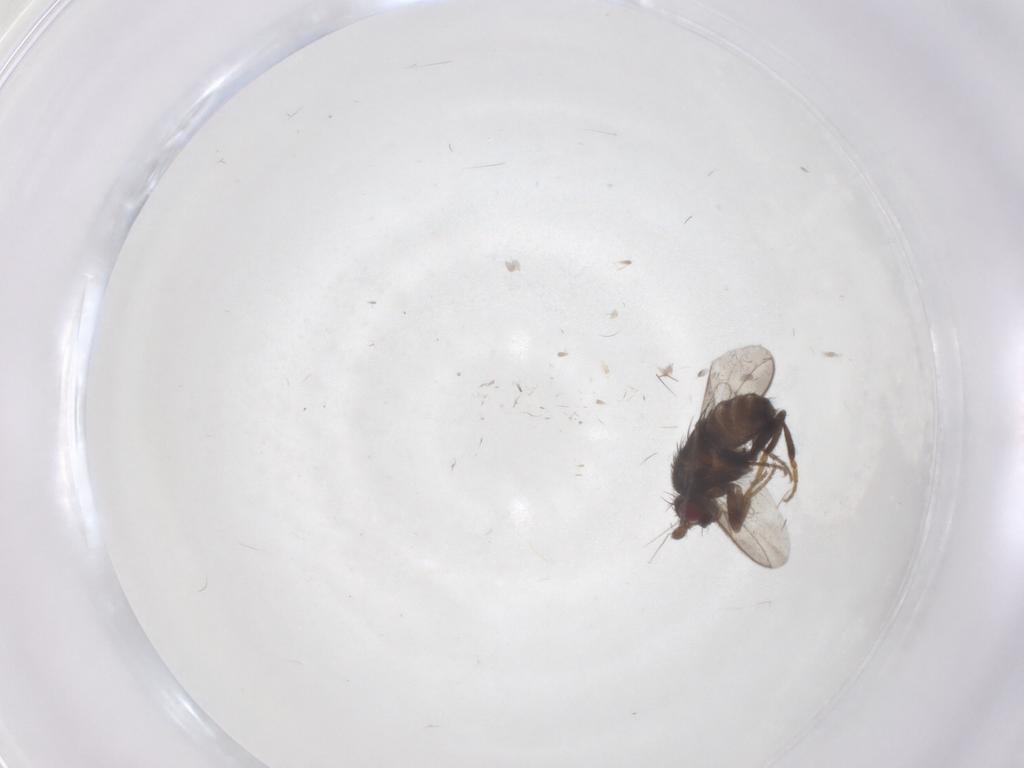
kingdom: Animalia
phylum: Arthropoda
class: Insecta
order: Diptera
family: Sphaeroceridae
